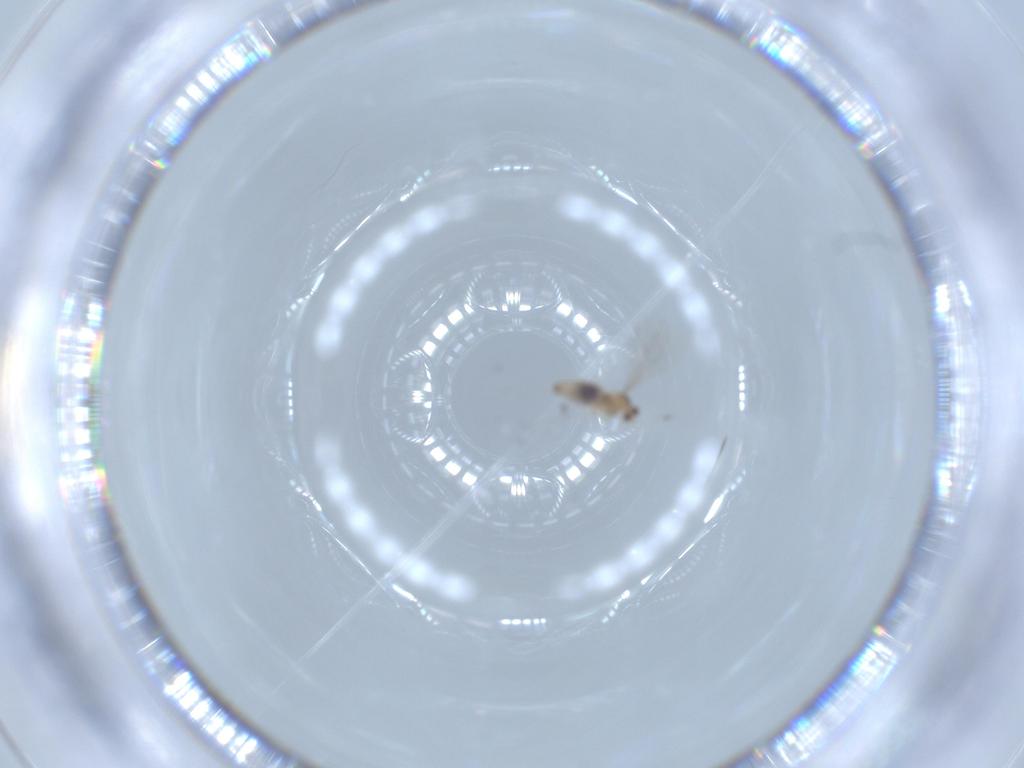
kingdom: Animalia
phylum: Arthropoda
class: Insecta
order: Diptera
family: Cecidomyiidae
